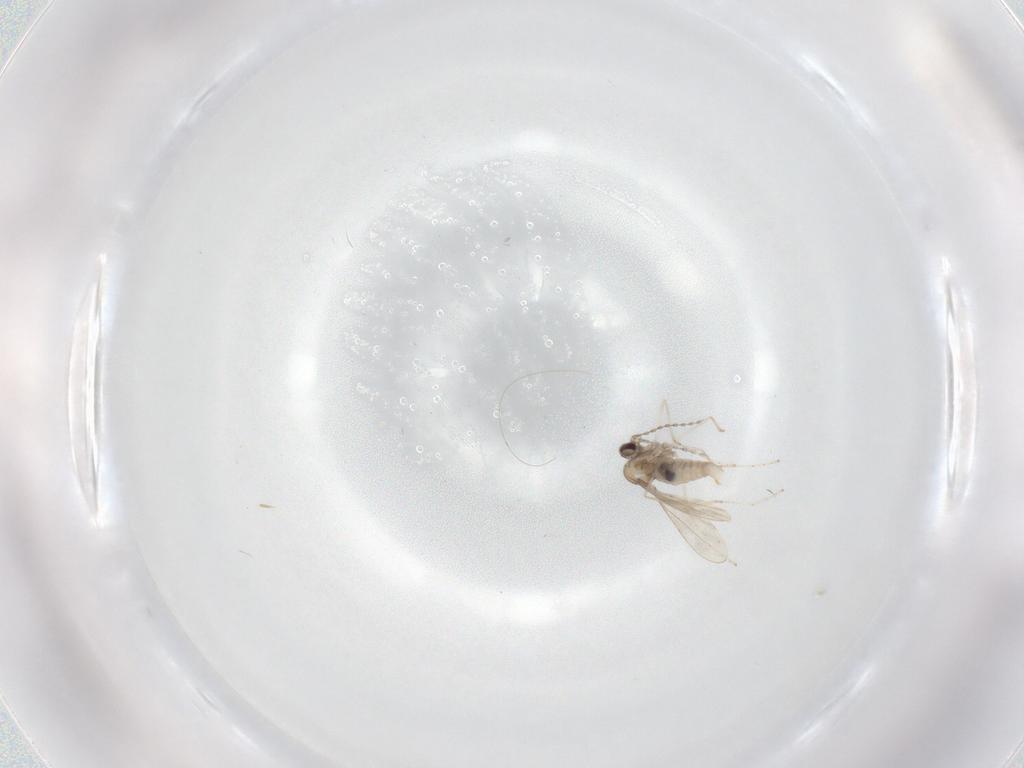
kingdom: Animalia
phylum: Arthropoda
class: Insecta
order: Diptera
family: Cecidomyiidae
